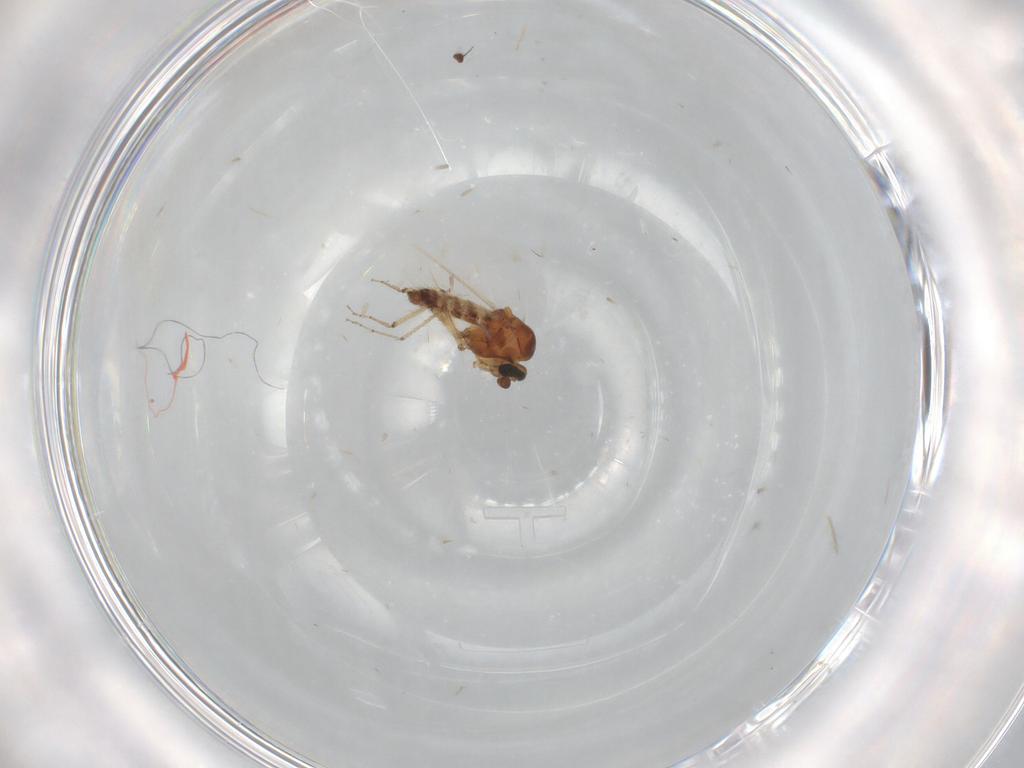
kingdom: Animalia
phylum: Arthropoda
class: Insecta
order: Diptera
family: Ceratopogonidae
